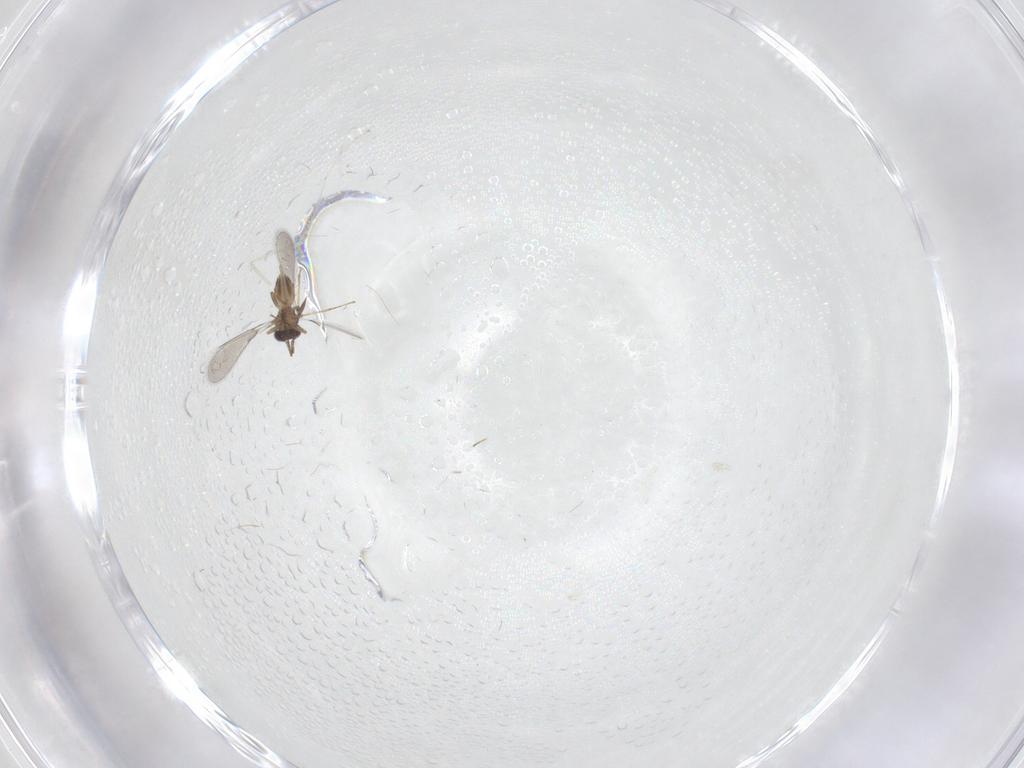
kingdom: Animalia
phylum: Arthropoda
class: Insecta
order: Hymenoptera
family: Mymaridae
